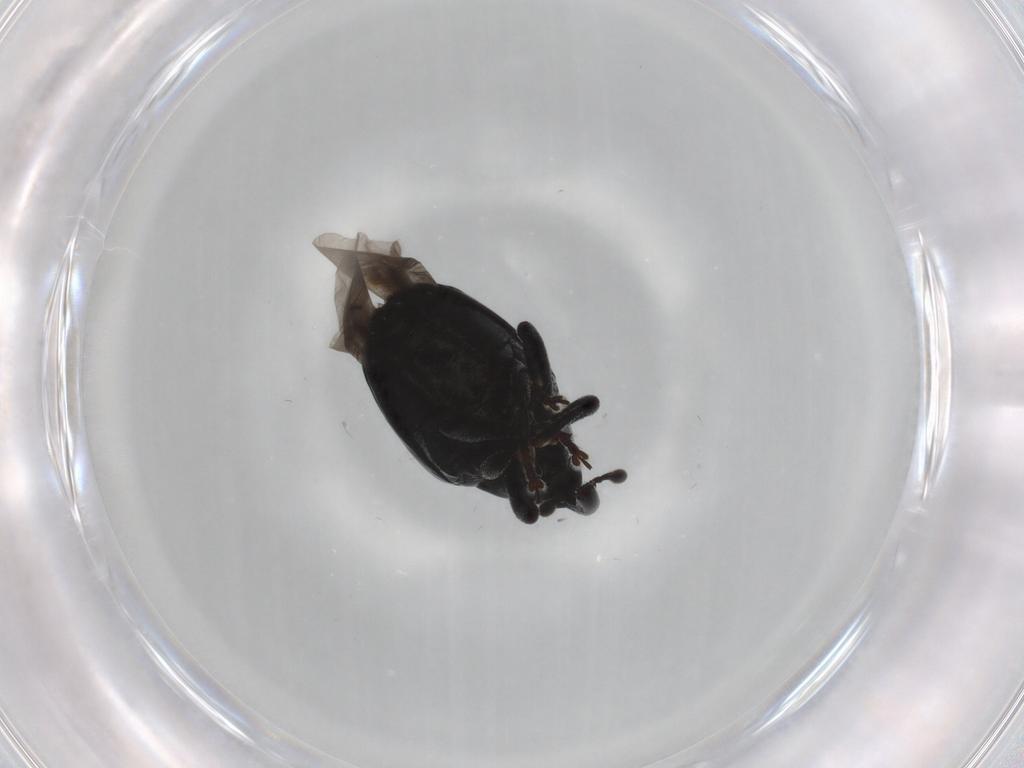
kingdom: Animalia
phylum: Arthropoda
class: Insecta
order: Coleoptera
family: Curculionidae
